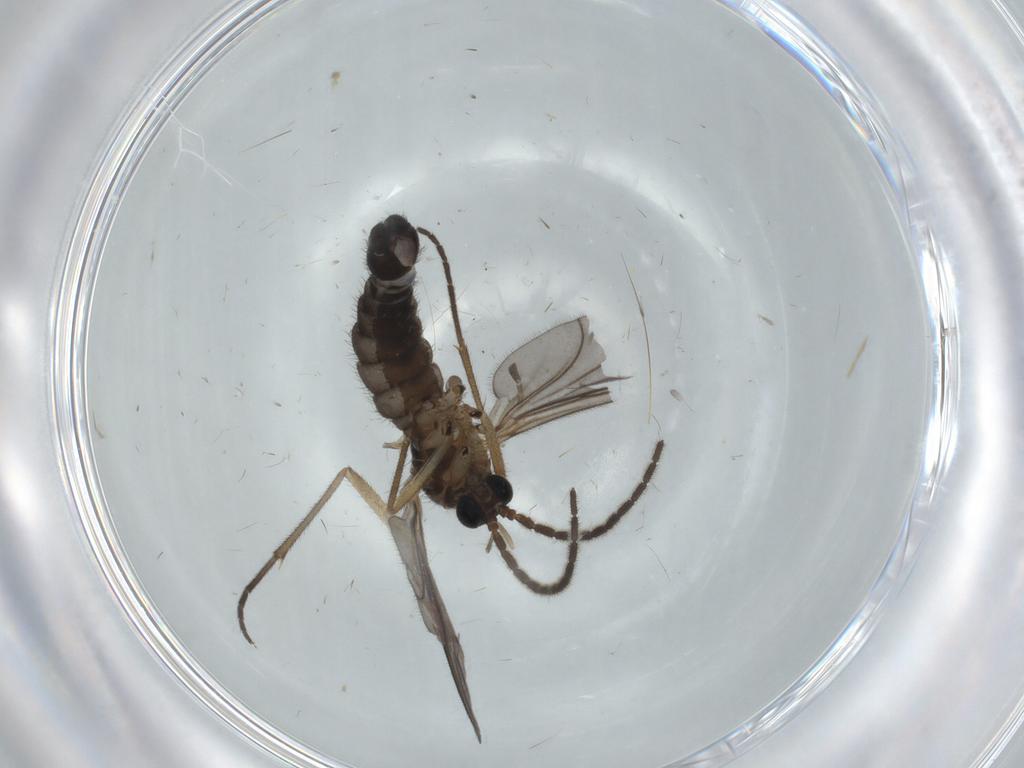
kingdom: Animalia
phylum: Arthropoda
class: Insecta
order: Diptera
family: Sciaridae
